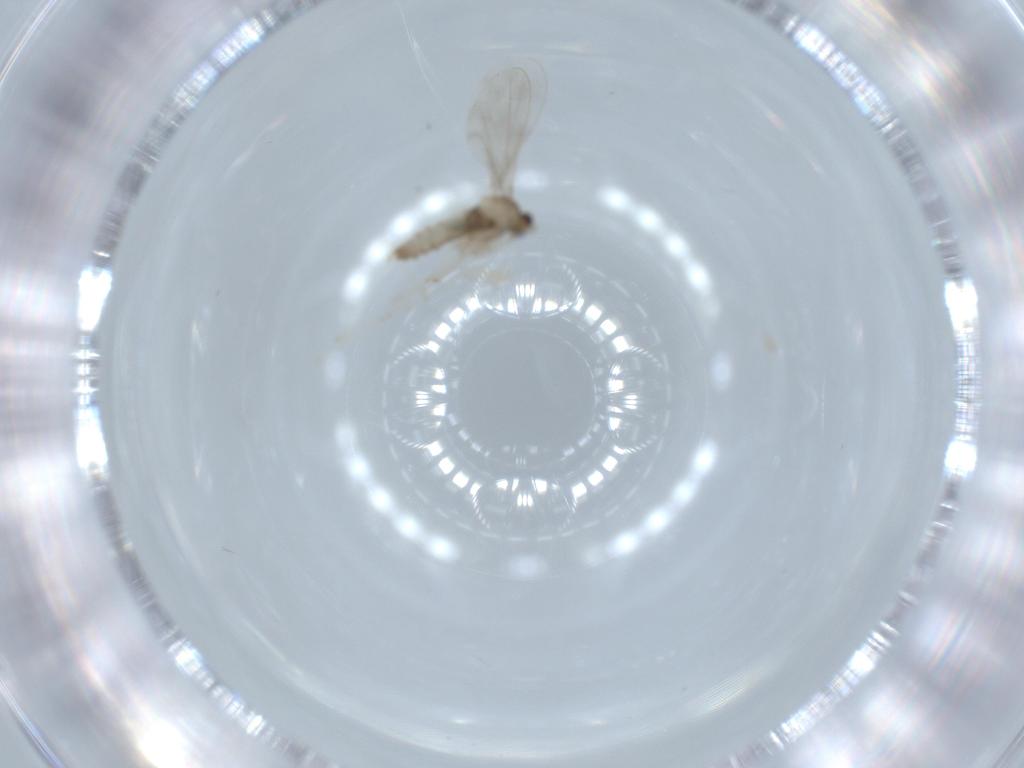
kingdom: Animalia
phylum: Arthropoda
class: Insecta
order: Diptera
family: Cecidomyiidae
